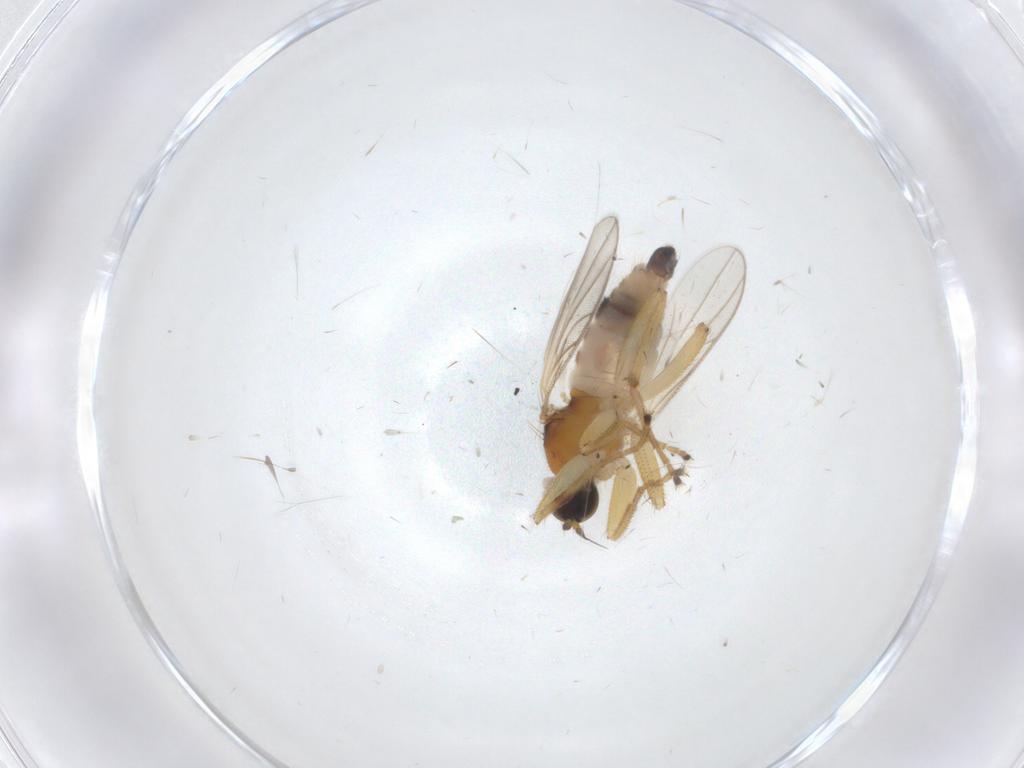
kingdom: Animalia
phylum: Arthropoda
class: Insecta
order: Diptera
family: Hybotidae
